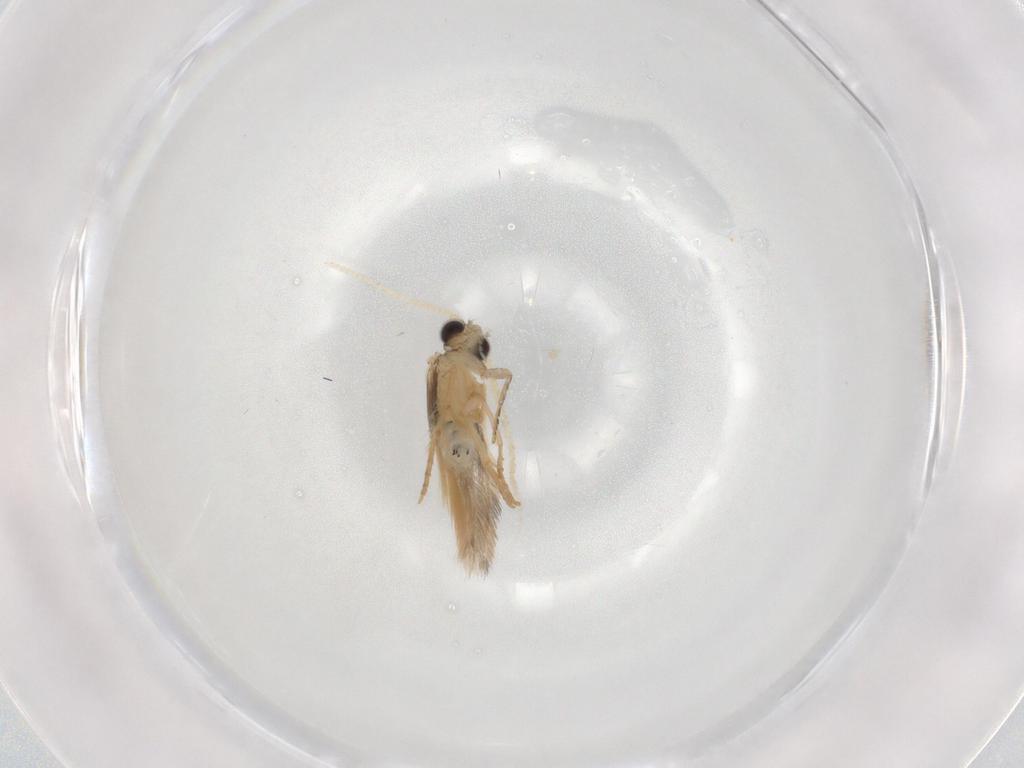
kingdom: Animalia
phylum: Arthropoda
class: Insecta
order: Trichoptera
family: Hydroptilidae
